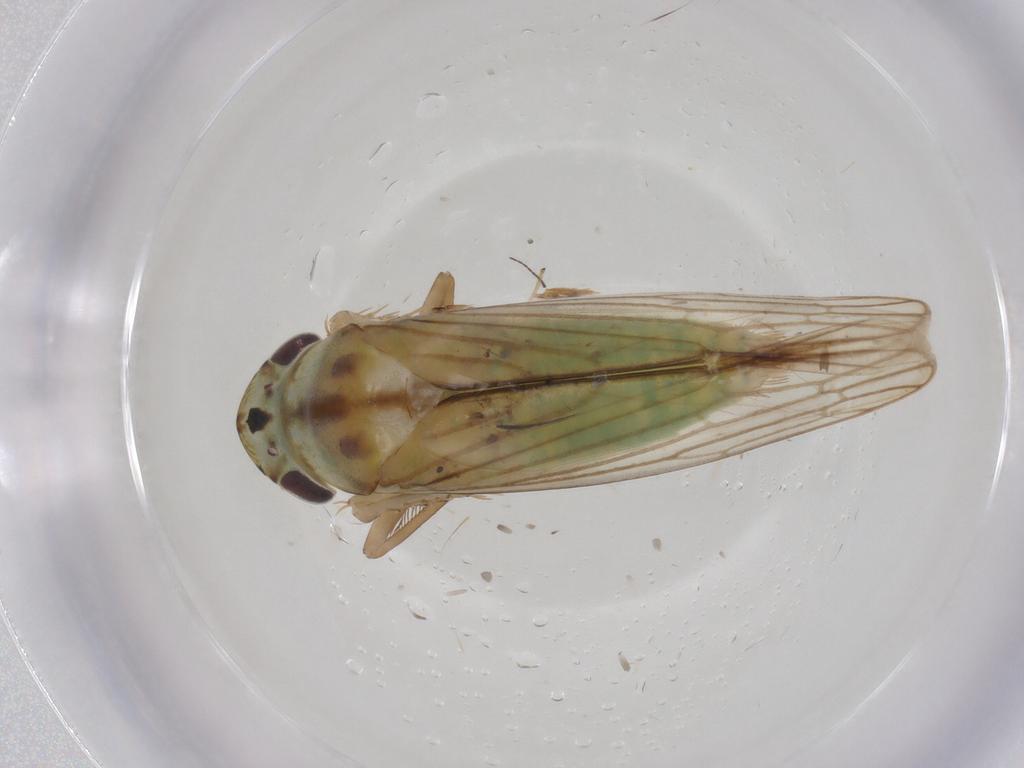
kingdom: Animalia
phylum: Arthropoda
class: Insecta
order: Hemiptera
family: Cicadellidae
